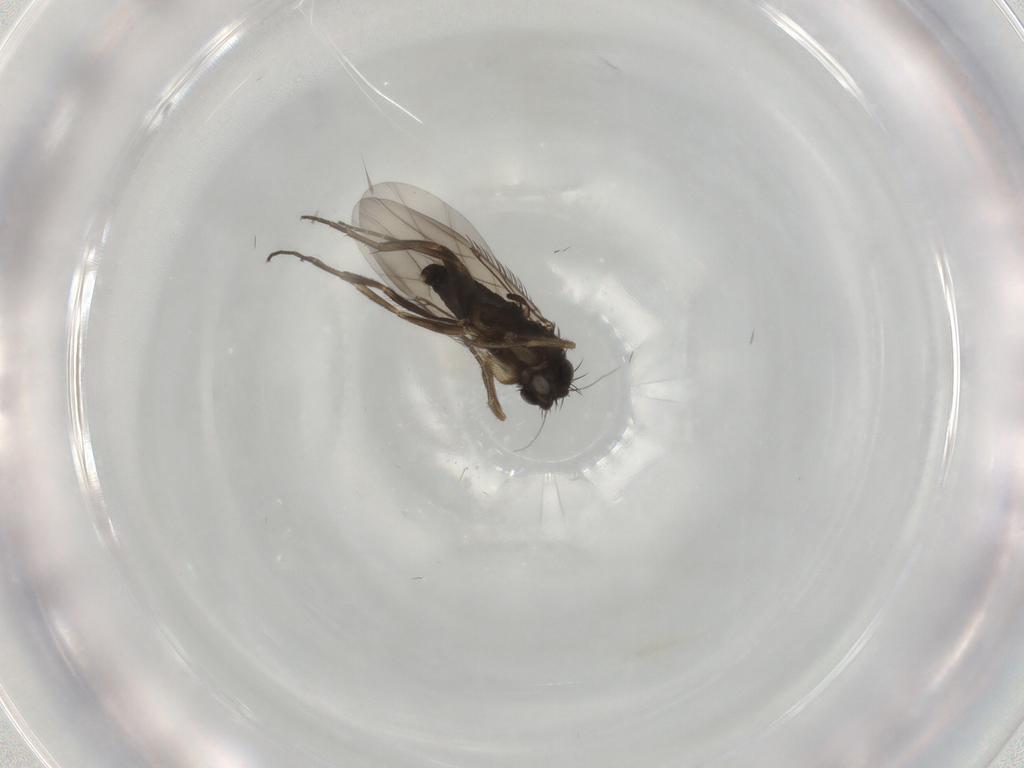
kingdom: Animalia
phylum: Arthropoda
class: Insecta
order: Diptera
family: Phoridae
